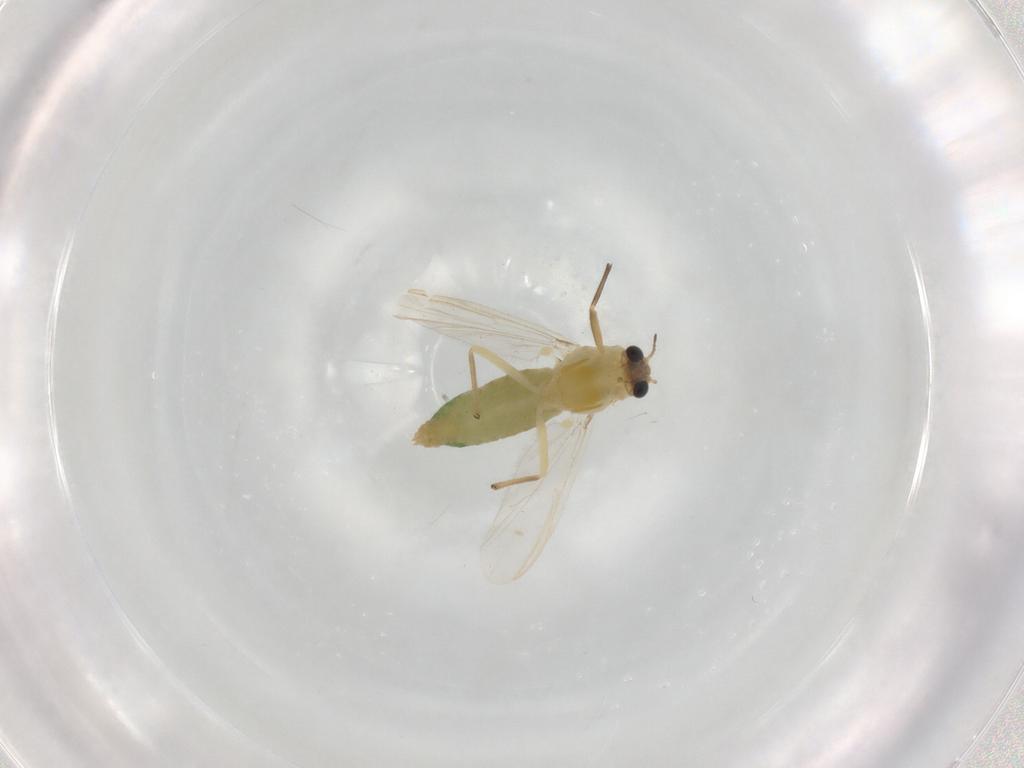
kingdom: Animalia
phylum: Arthropoda
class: Insecta
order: Diptera
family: Chironomidae
